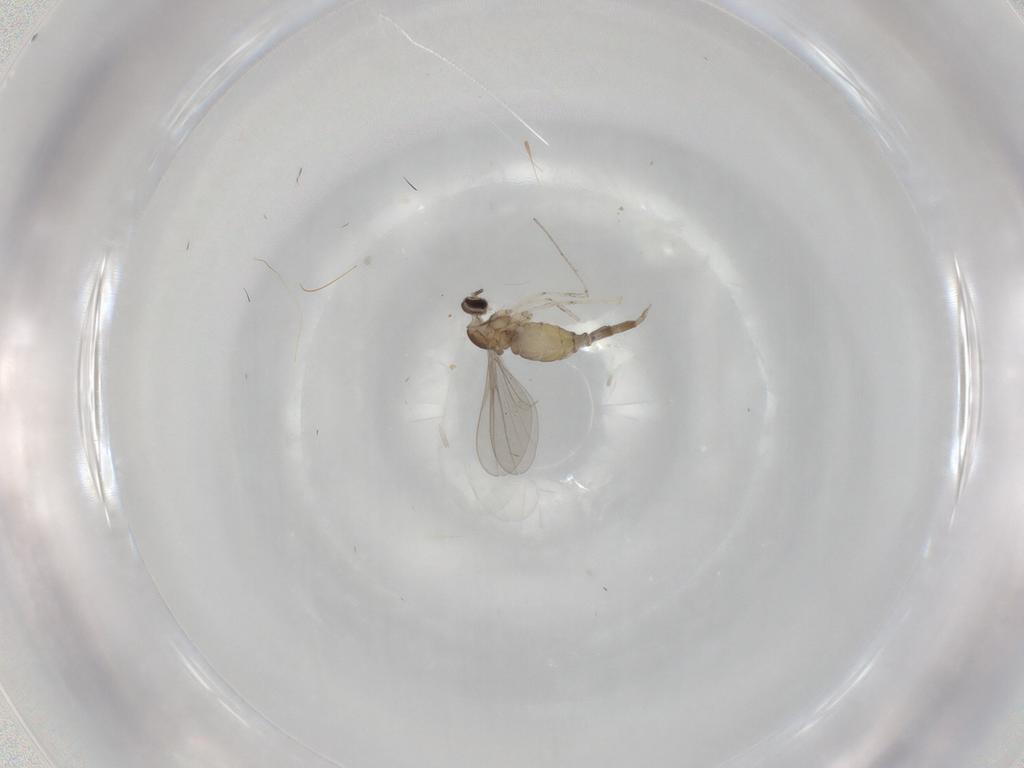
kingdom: Animalia
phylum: Arthropoda
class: Insecta
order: Diptera
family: Cecidomyiidae
